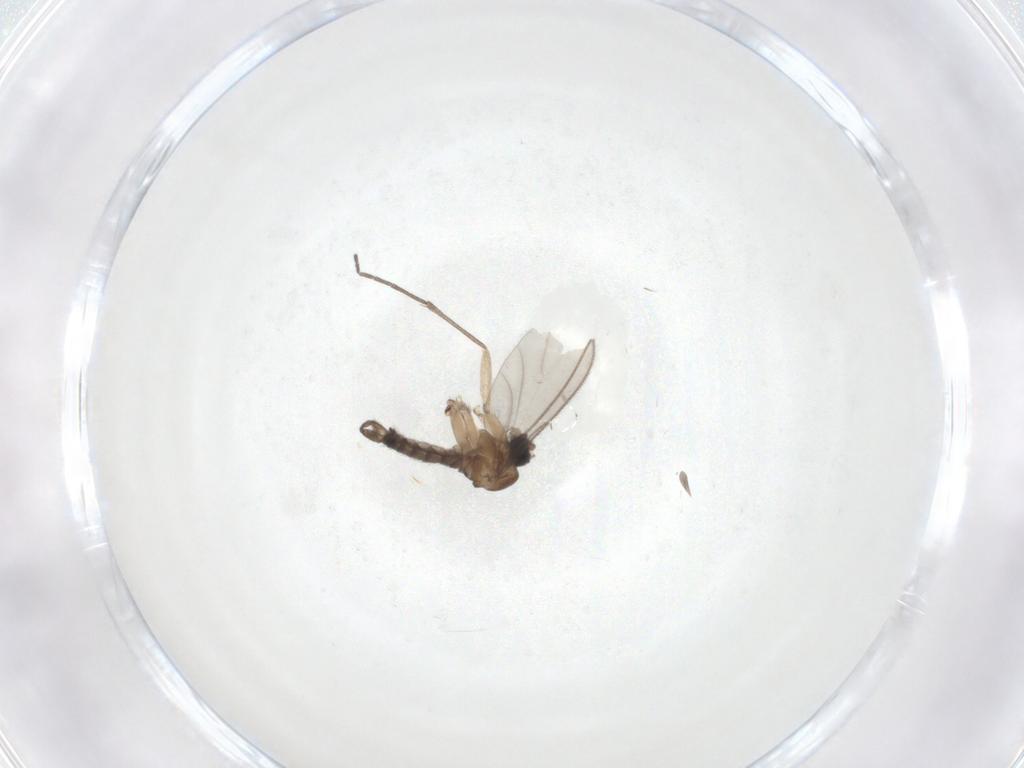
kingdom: Animalia
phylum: Arthropoda
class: Insecta
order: Diptera
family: Sciaridae
